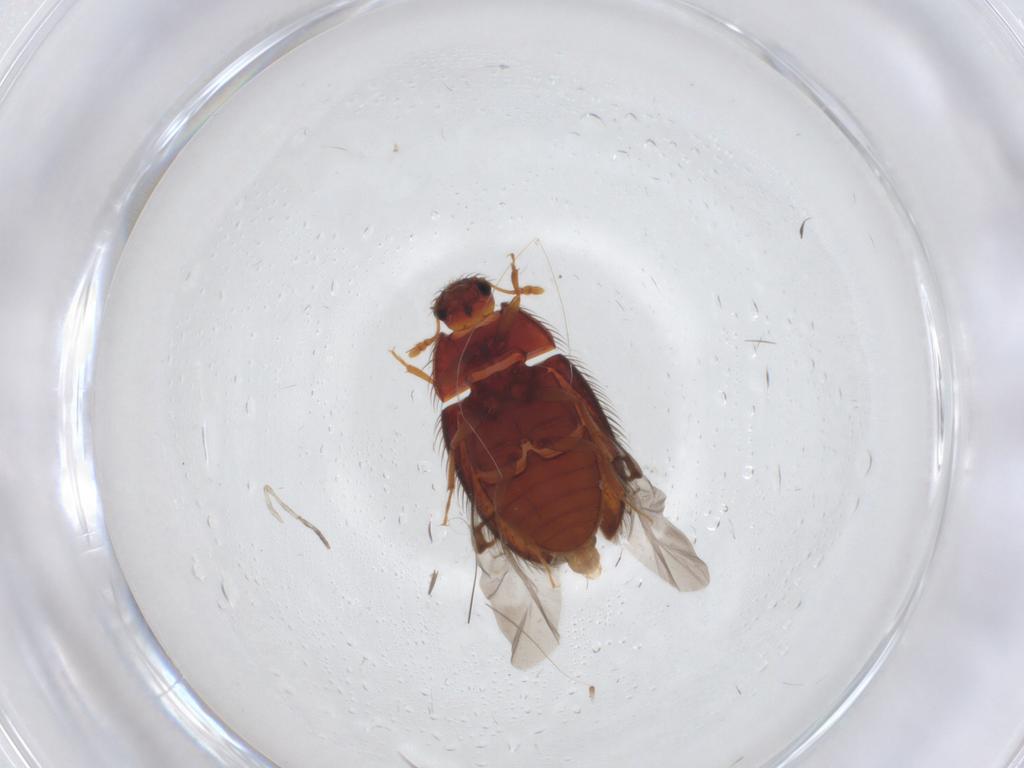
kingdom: Animalia
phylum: Arthropoda
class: Insecta
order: Coleoptera
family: Biphyllidae
